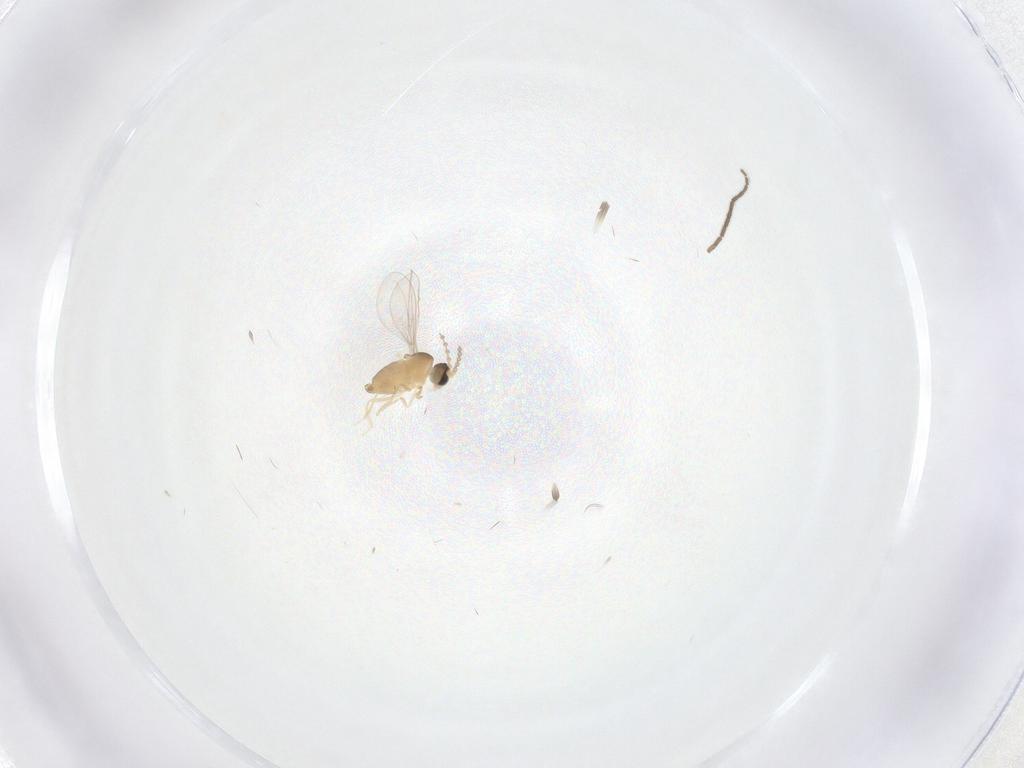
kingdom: Animalia
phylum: Arthropoda
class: Insecta
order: Diptera
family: Cecidomyiidae
